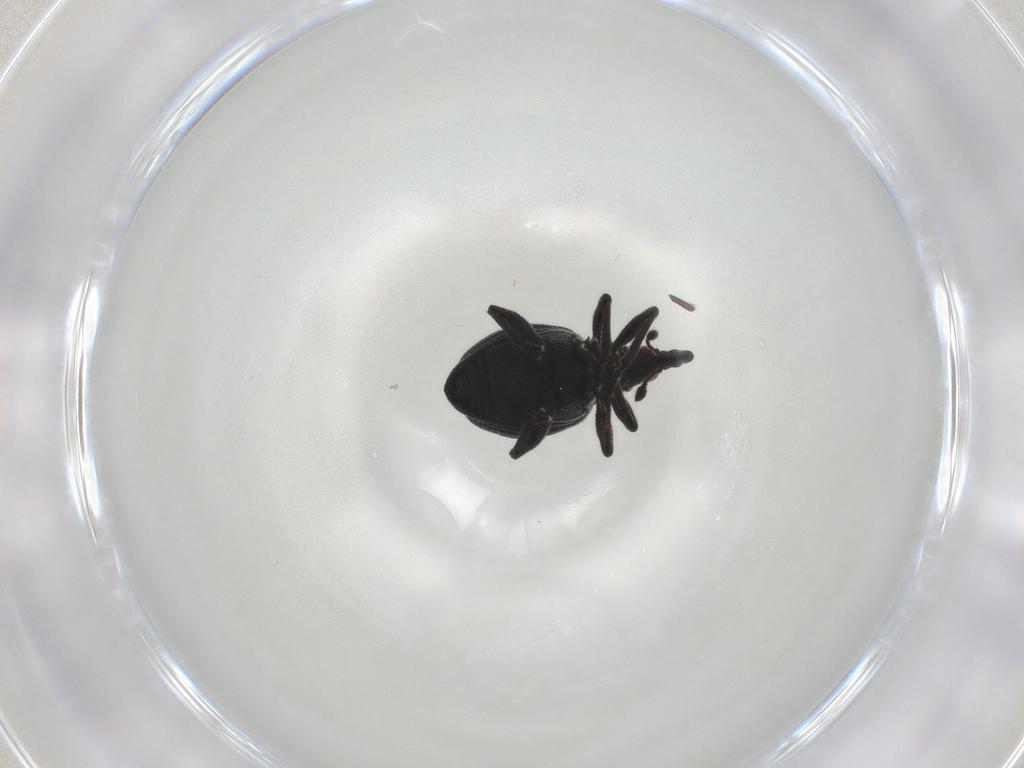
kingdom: Animalia
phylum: Arthropoda
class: Insecta
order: Coleoptera
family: Brentidae
